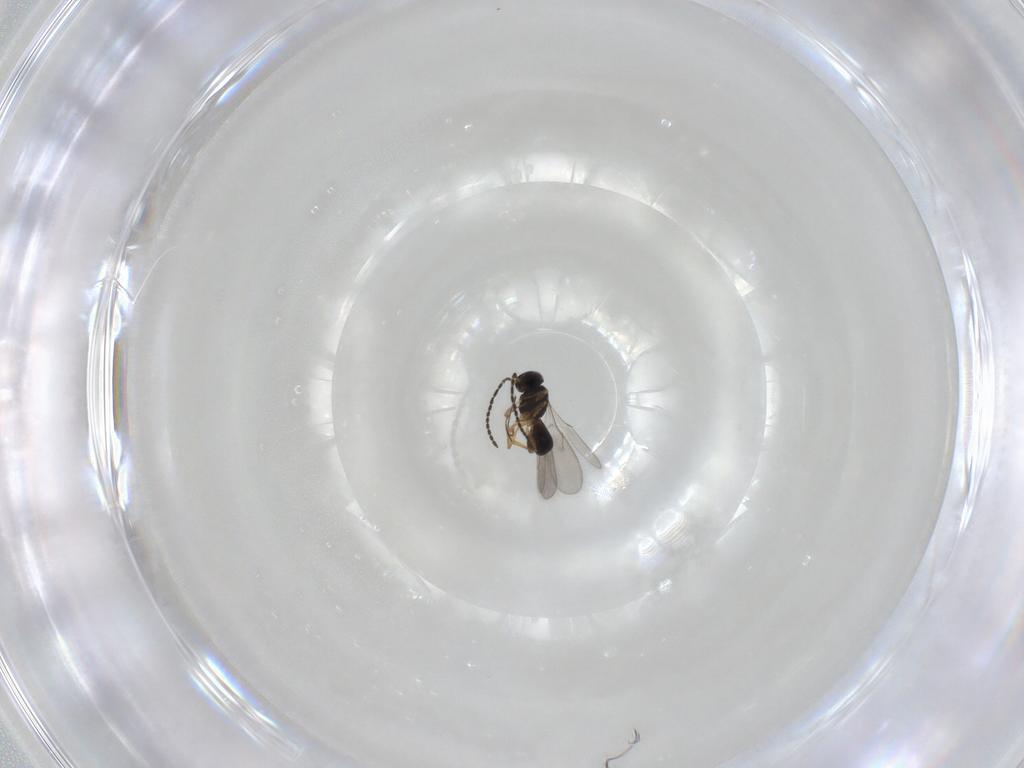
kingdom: Animalia
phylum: Arthropoda
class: Insecta
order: Hymenoptera
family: Scelionidae
